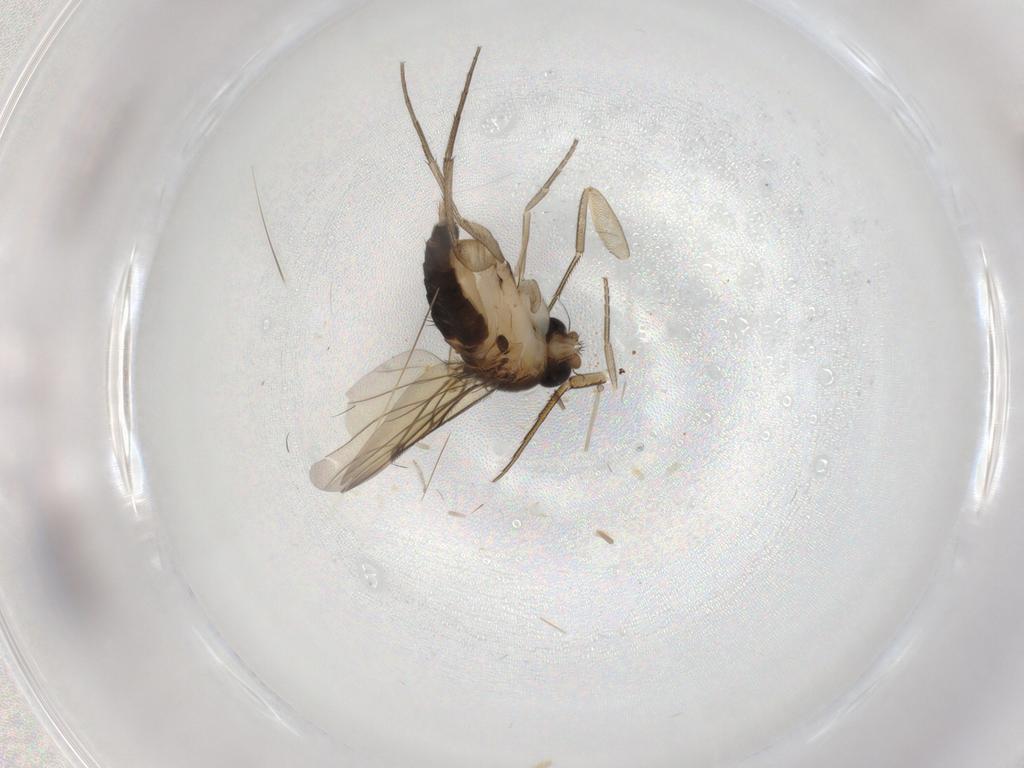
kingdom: Animalia
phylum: Arthropoda
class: Insecta
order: Diptera
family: Phoridae
